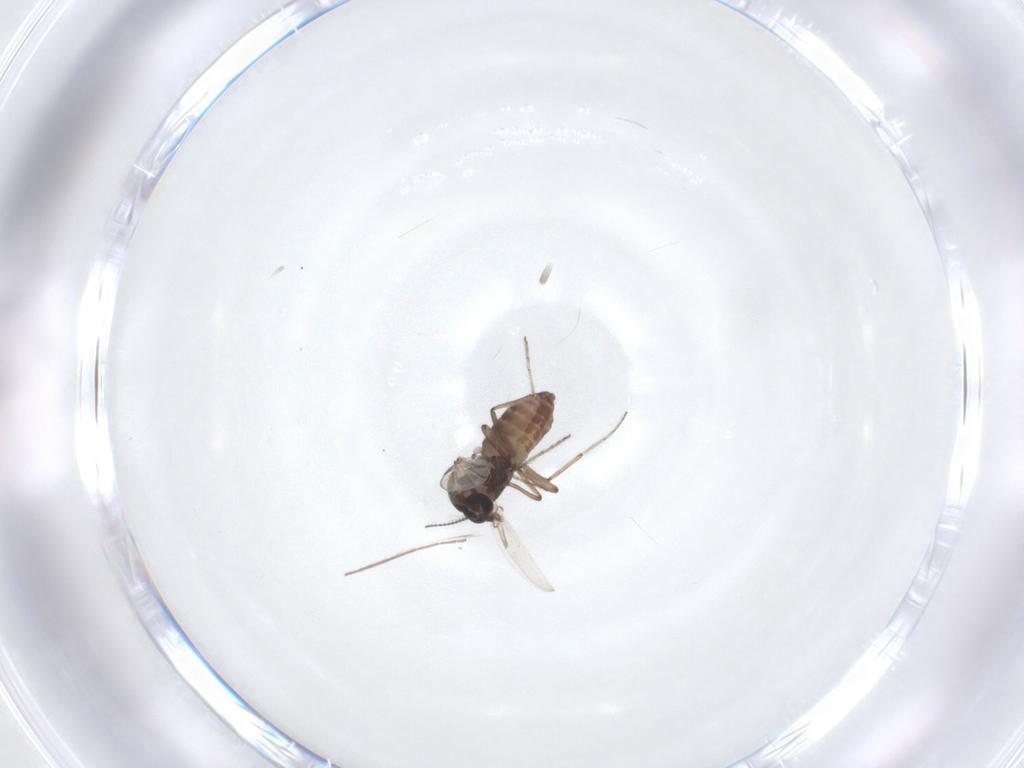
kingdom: Animalia
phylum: Arthropoda
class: Insecta
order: Diptera
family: Ceratopogonidae
